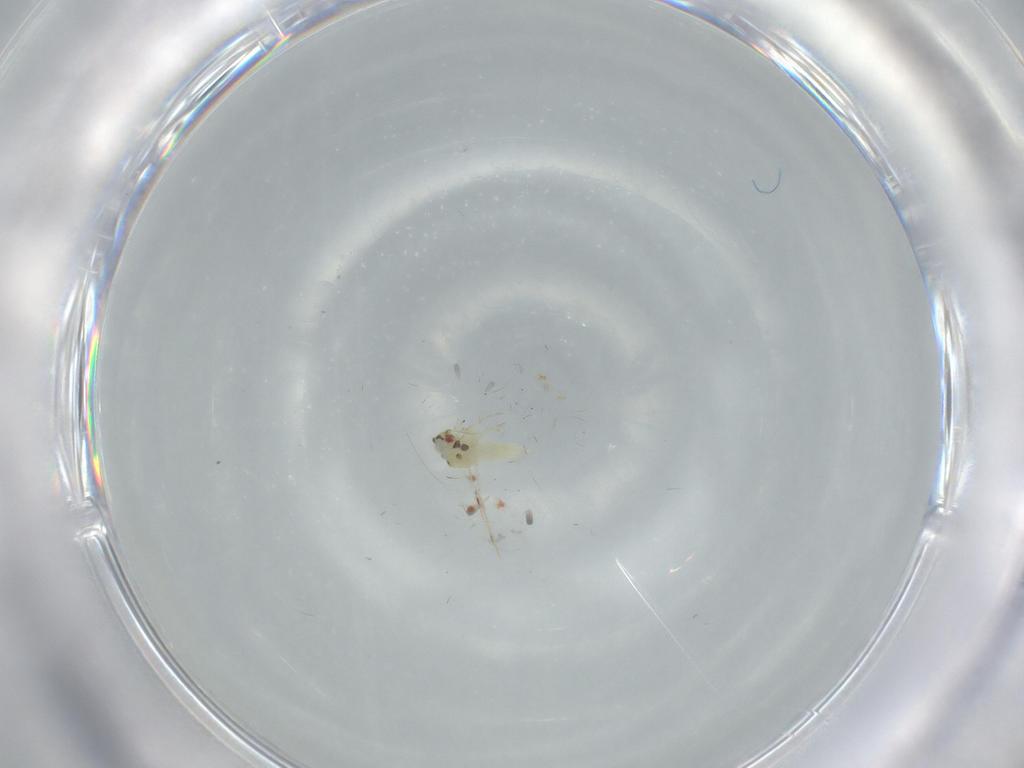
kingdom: Animalia
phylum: Arthropoda
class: Insecta
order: Hemiptera
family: Aleyrodidae
